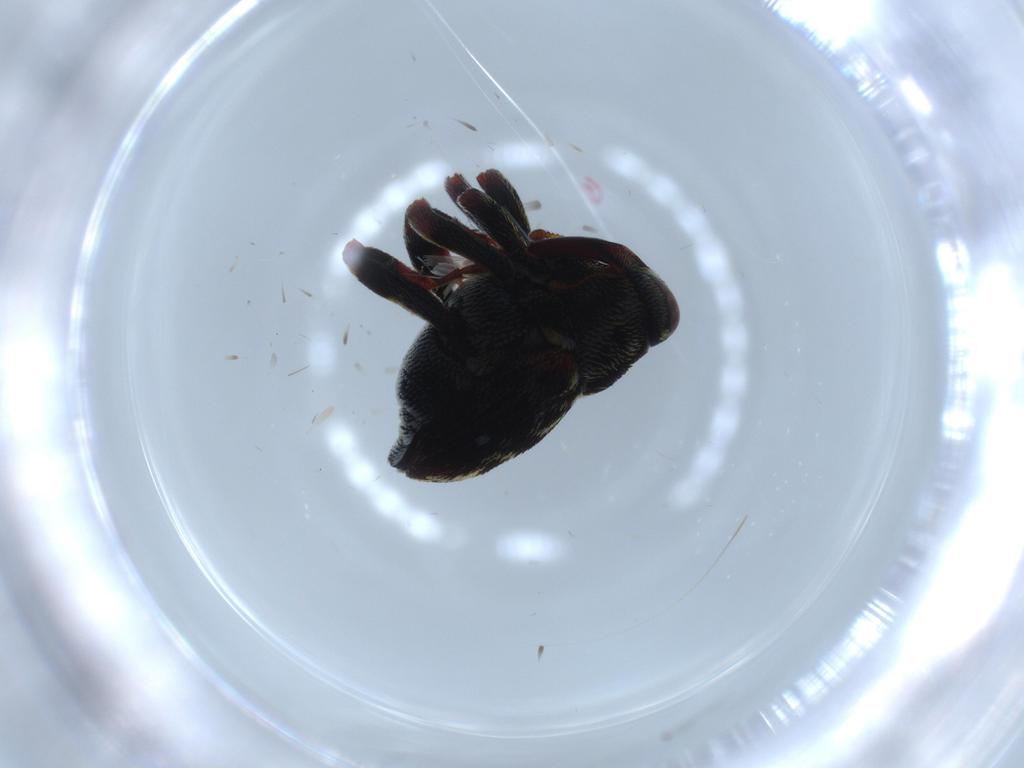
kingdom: Animalia
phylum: Arthropoda
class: Insecta
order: Coleoptera
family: Curculionidae
